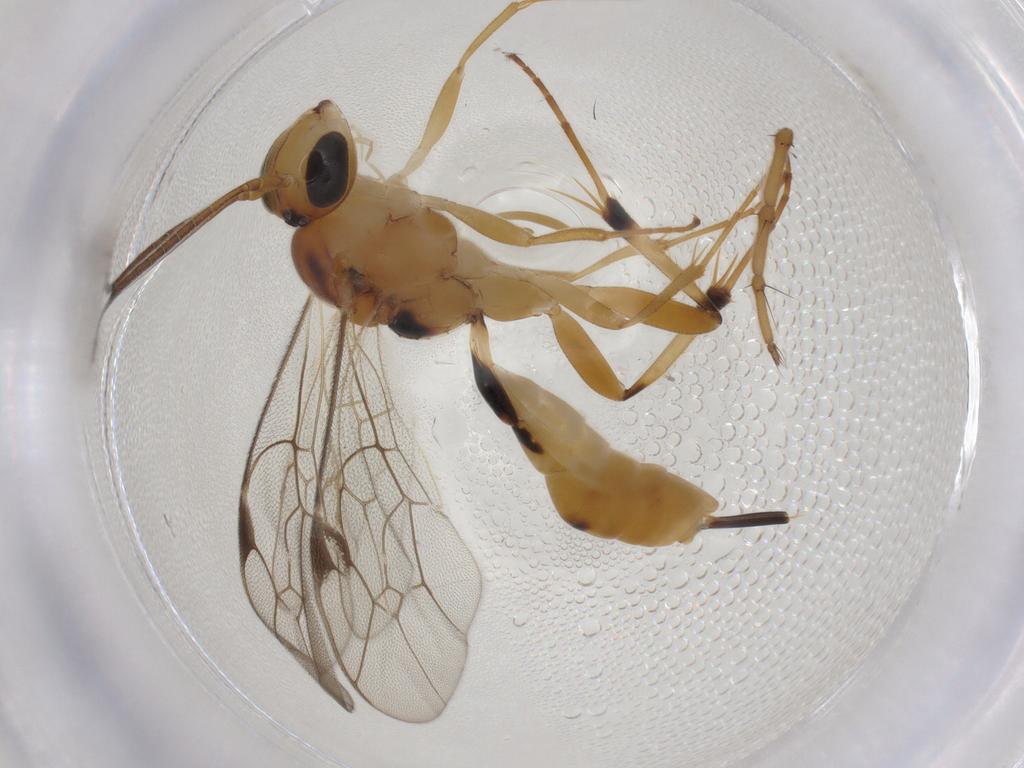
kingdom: Animalia
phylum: Arthropoda
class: Insecta
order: Hymenoptera
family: Ichneumonidae
